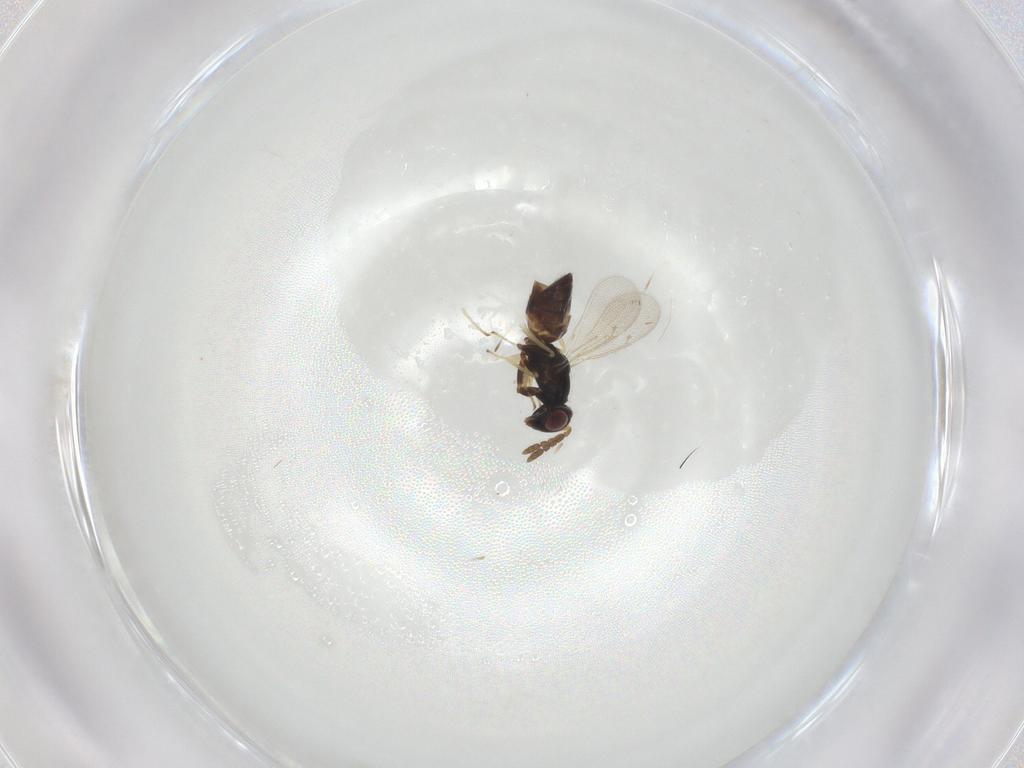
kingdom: Animalia
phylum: Arthropoda
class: Insecta
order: Hymenoptera
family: Eulophidae
